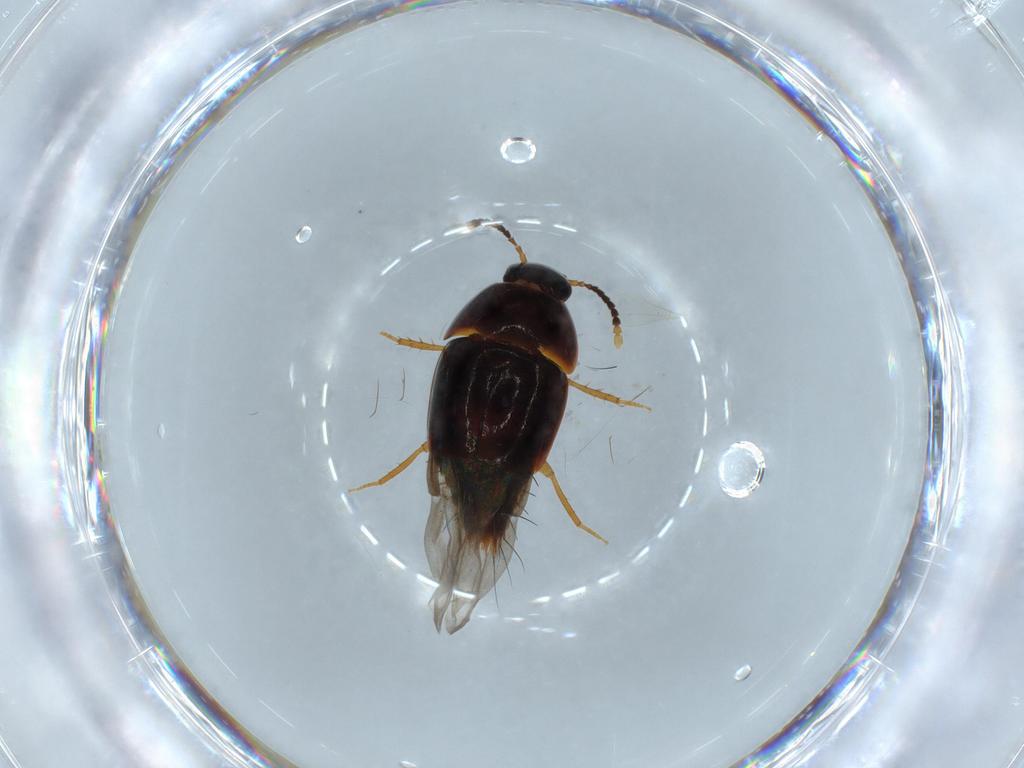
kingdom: Animalia
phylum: Arthropoda
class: Insecta
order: Coleoptera
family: Staphylinidae
